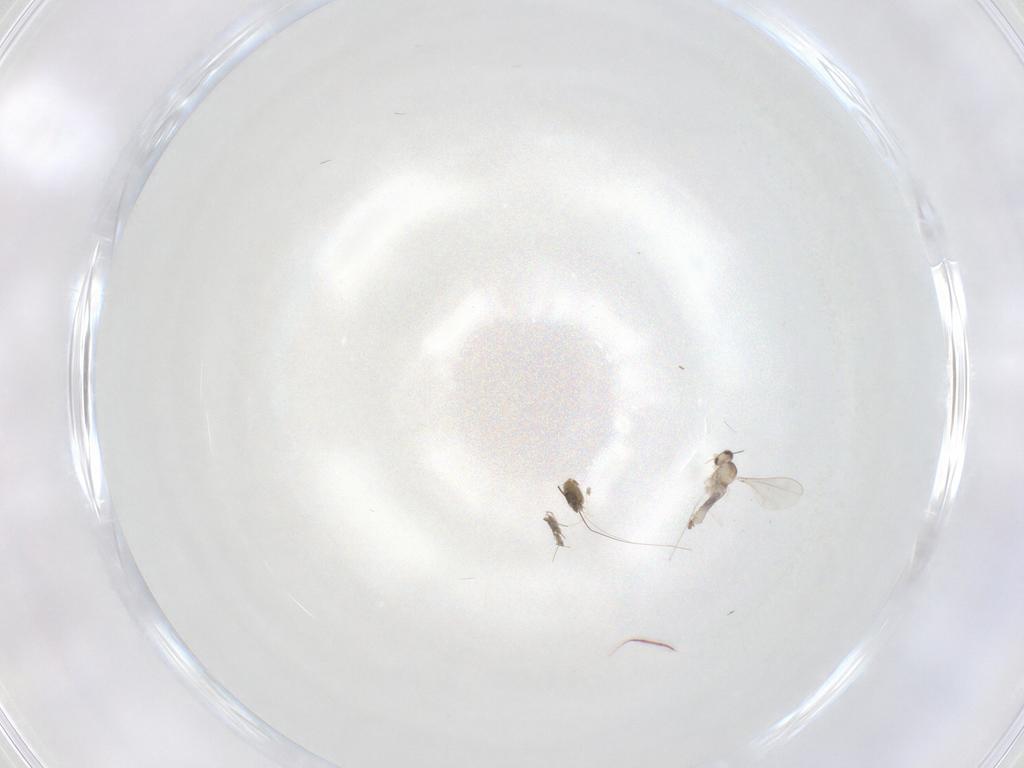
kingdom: Animalia
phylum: Arthropoda
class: Insecta
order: Diptera
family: Cecidomyiidae
